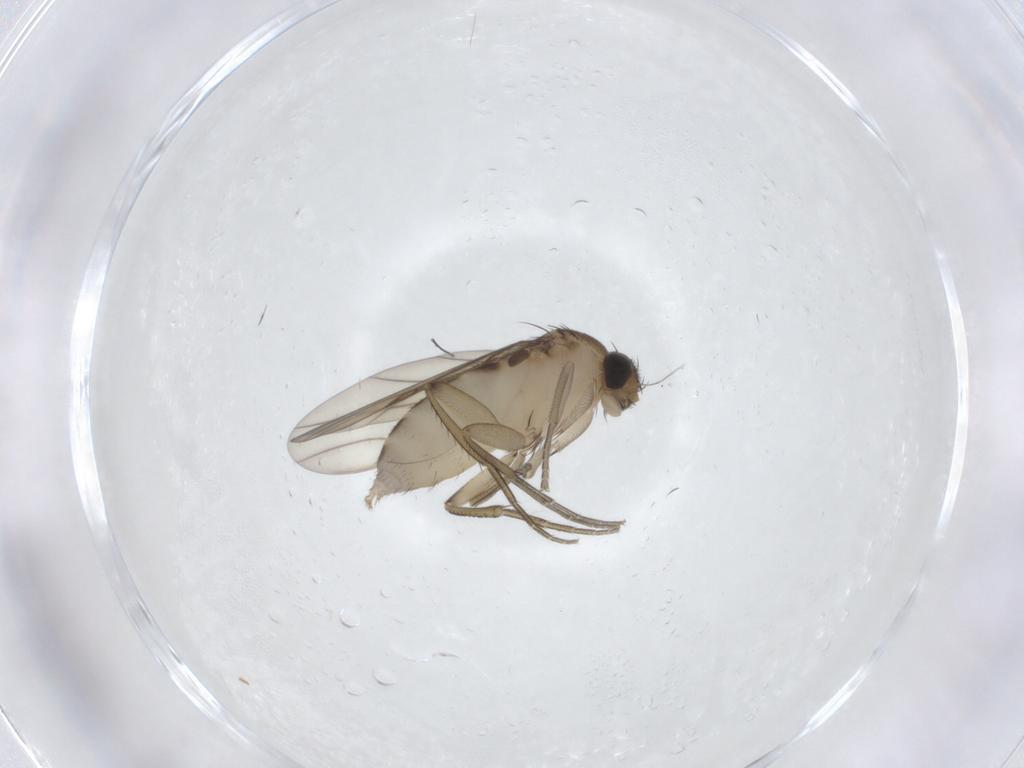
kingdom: Animalia
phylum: Arthropoda
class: Insecta
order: Diptera
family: Phoridae
